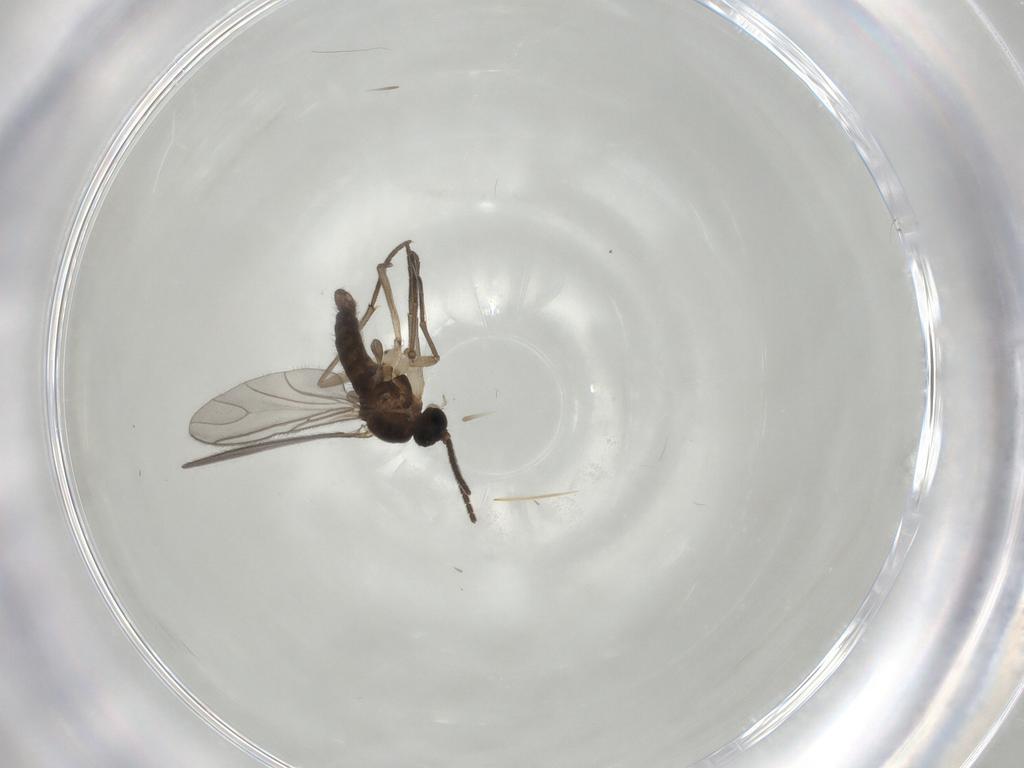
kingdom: Animalia
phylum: Arthropoda
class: Insecta
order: Diptera
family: Sciaridae
